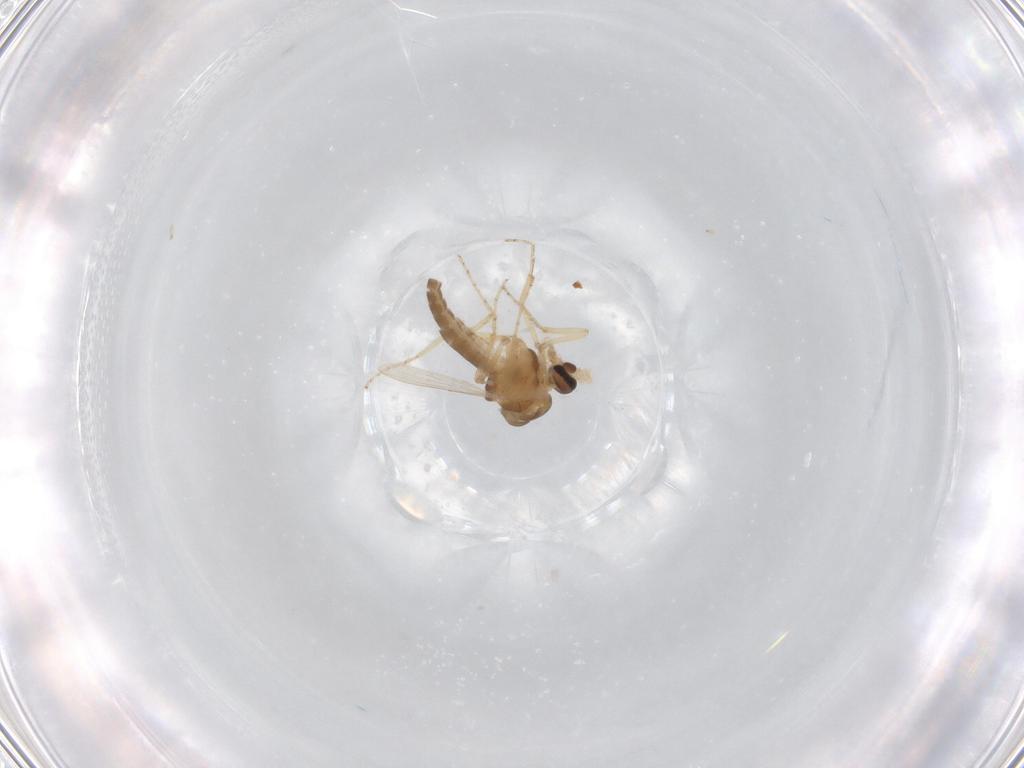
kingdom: Animalia
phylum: Arthropoda
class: Insecta
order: Diptera
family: Ceratopogonidae
